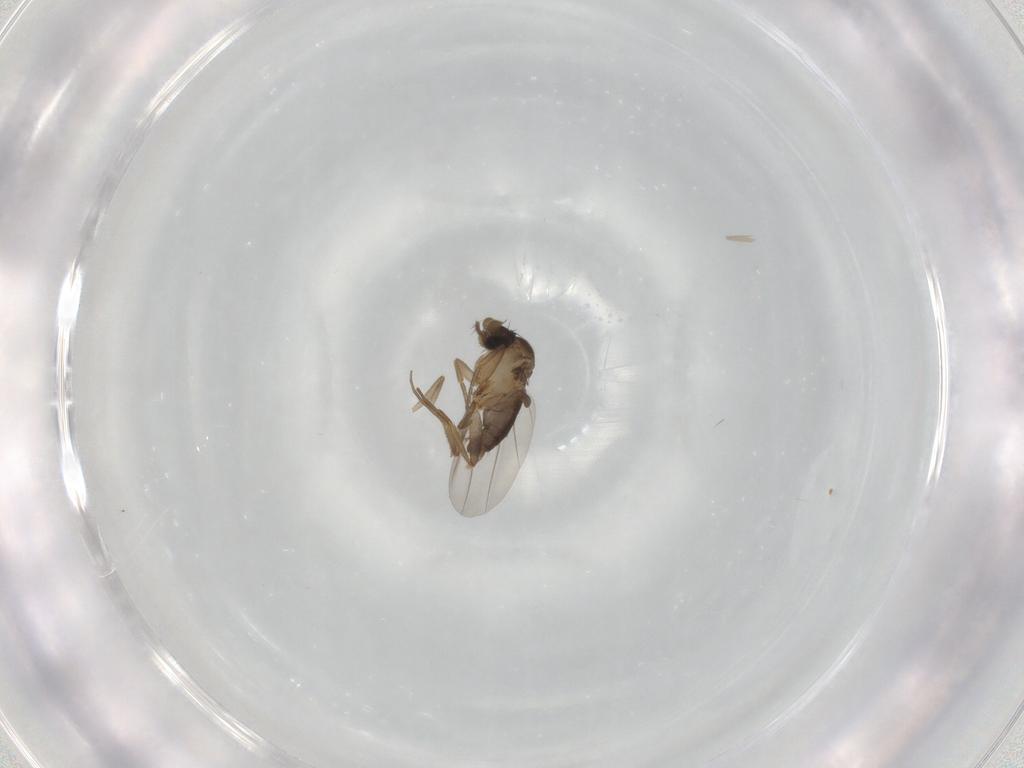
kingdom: Animalia
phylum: Arthropoda
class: Insecta
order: Diptera
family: Phoridae
